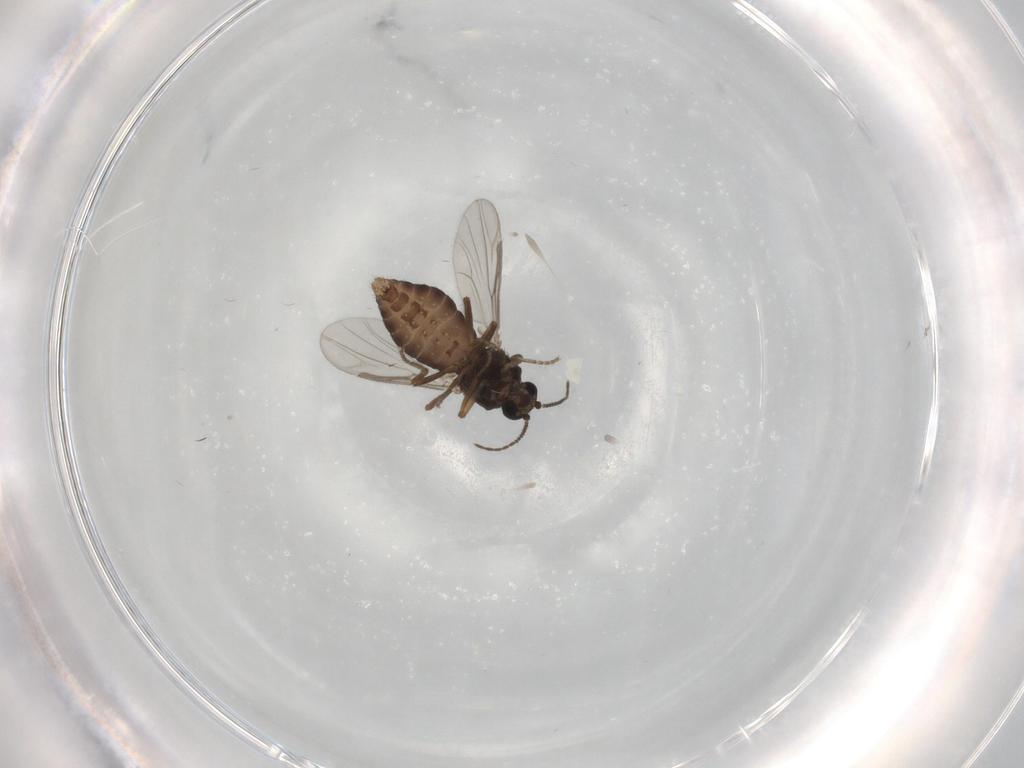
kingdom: Animalia
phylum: Arthropoda
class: Insecta
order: Diptera
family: Ceratopogonidae
